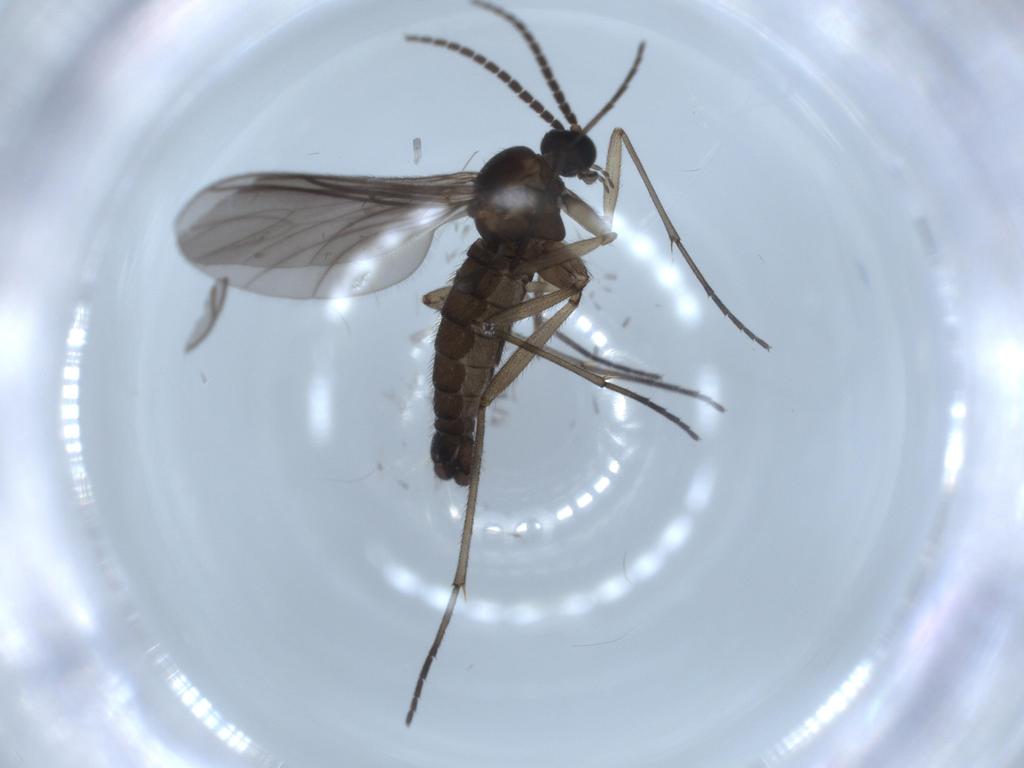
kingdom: Animalia
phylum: Arthropoda
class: Insecta
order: Diptera
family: Sciaridae
